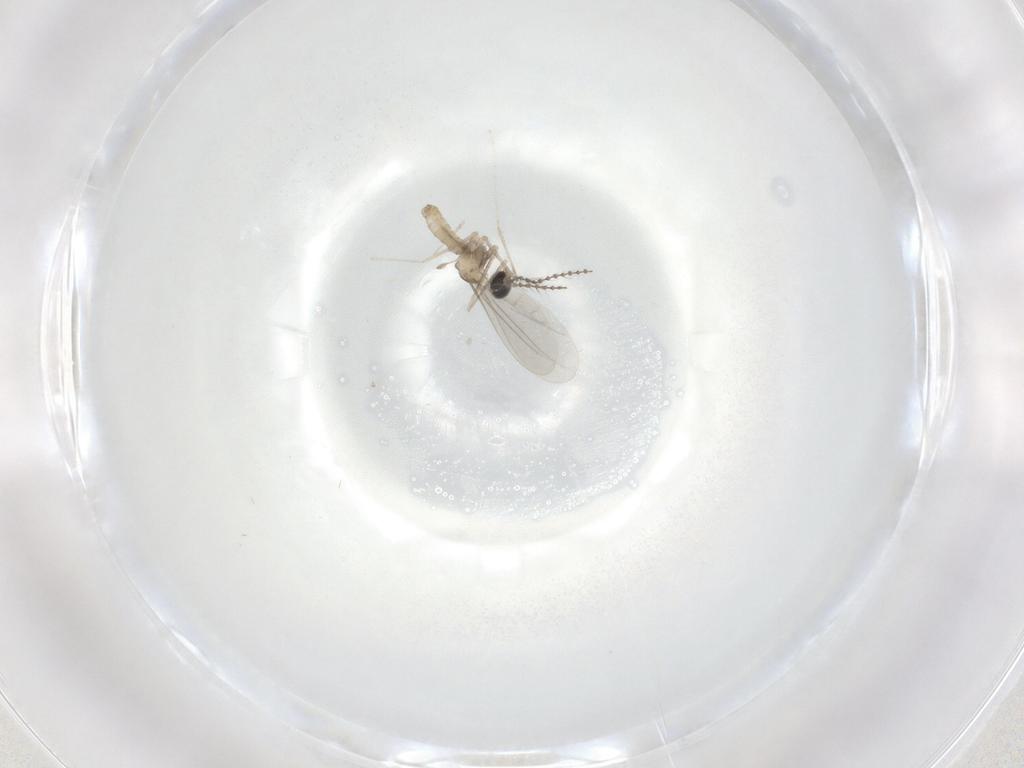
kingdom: Animalia
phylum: Arthropoda
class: Insecta
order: Diptera
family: Cecidomyiidae
